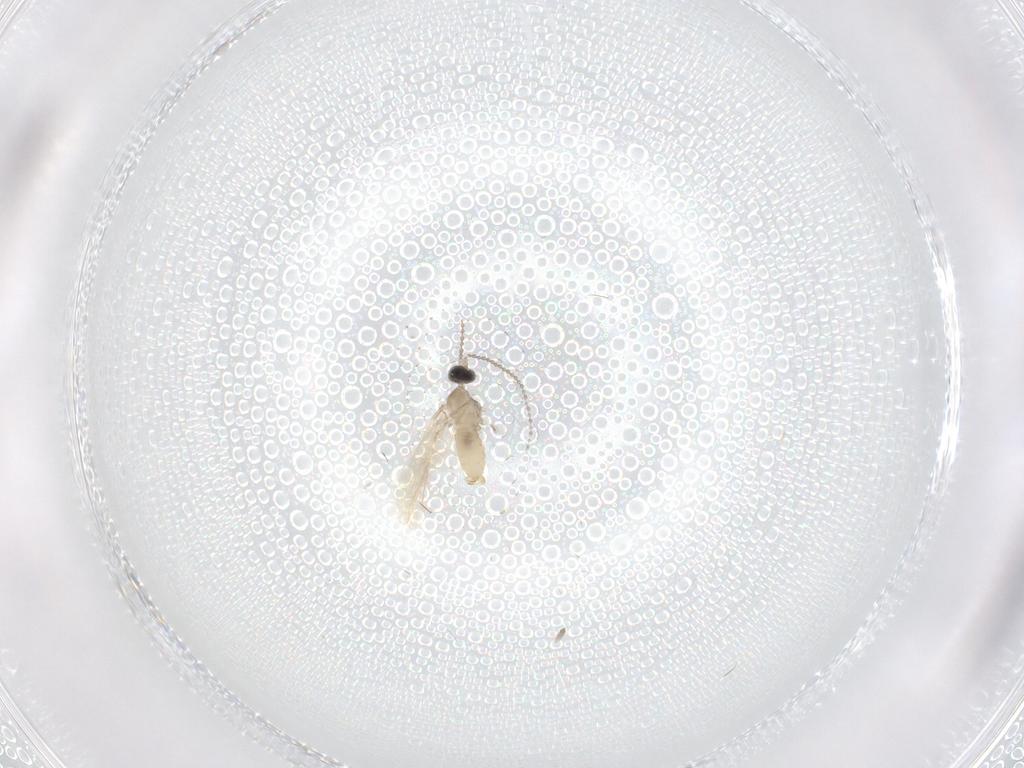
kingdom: Animalia
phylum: Arthropoda
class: Insecta
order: Diptera
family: Cecidomyiidae
